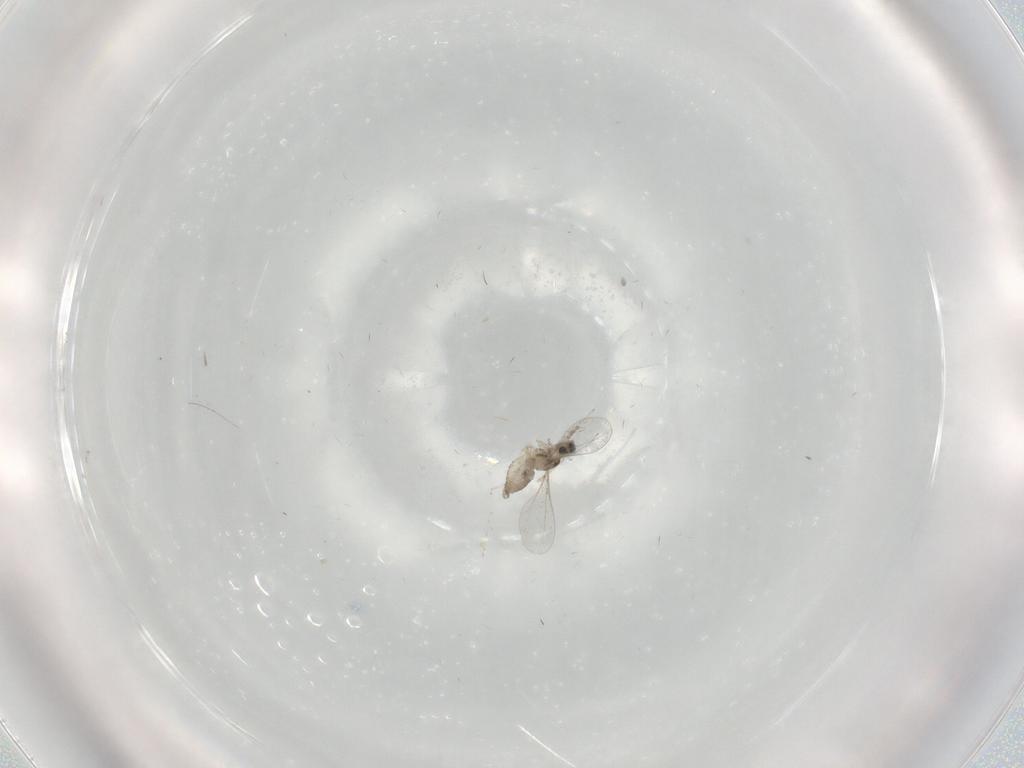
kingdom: Animalia
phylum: Arthropoda
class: Insecta
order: Diptera
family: Cecidomyiidae
